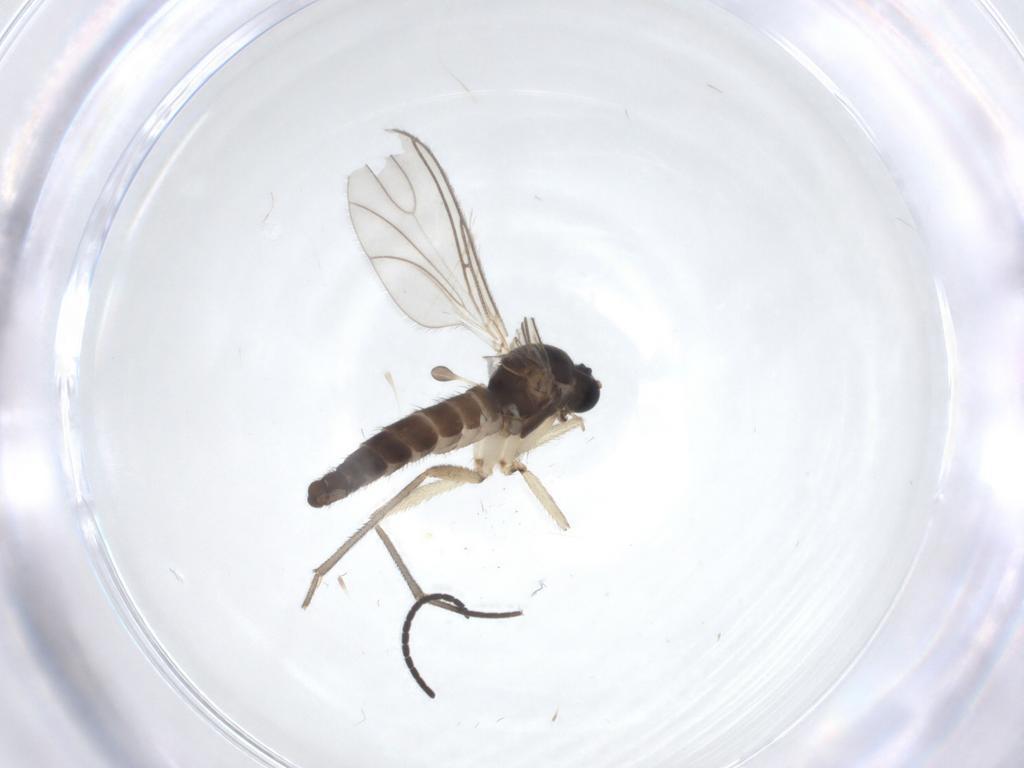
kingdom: Animalia
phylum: Arthropoda
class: Insecta
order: Diptera
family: Sciaridae
